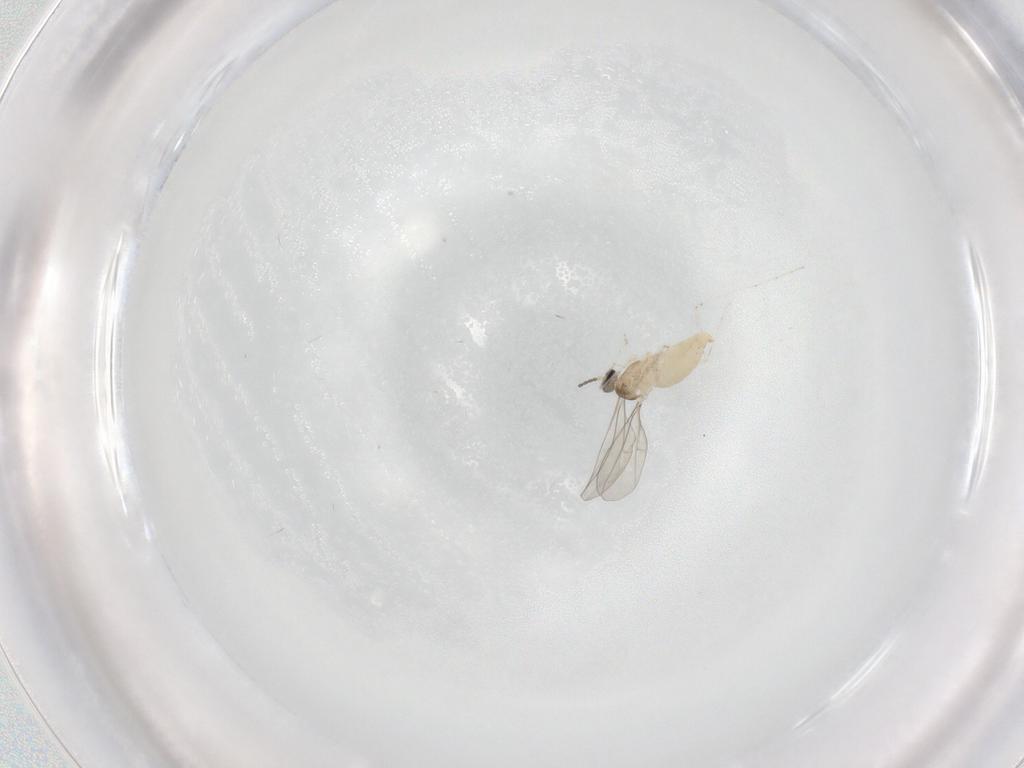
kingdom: Animalia
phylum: Arthropoda
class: Insecta
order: Diptera
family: Cecidomyiidae
